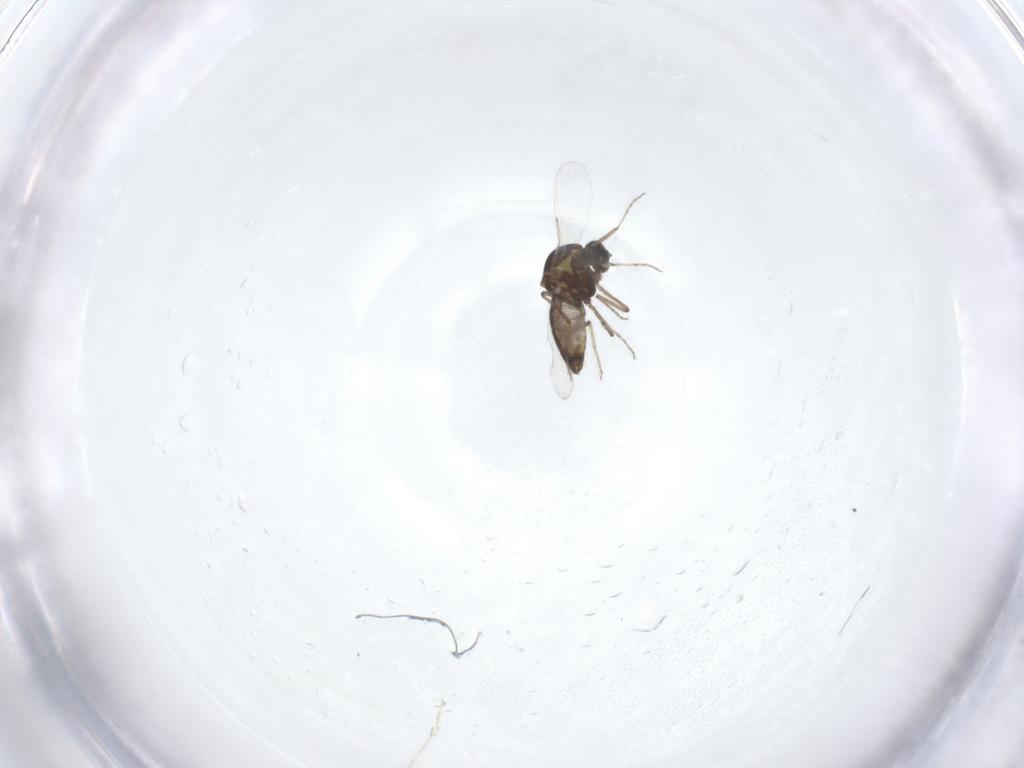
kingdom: Animalia
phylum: Arthropoda
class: Insecta
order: Diptera
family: Ceratopogonidae
